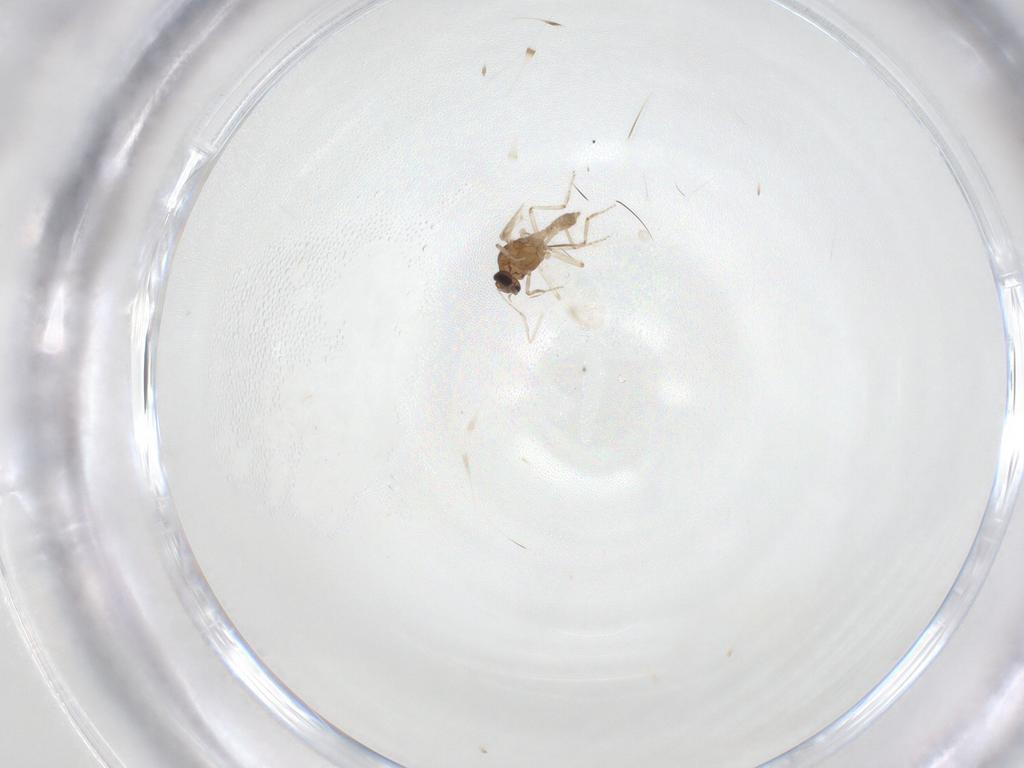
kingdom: Animalia
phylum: Arthropoda
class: Insecta
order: Diptera
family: Ceratopogonidae
